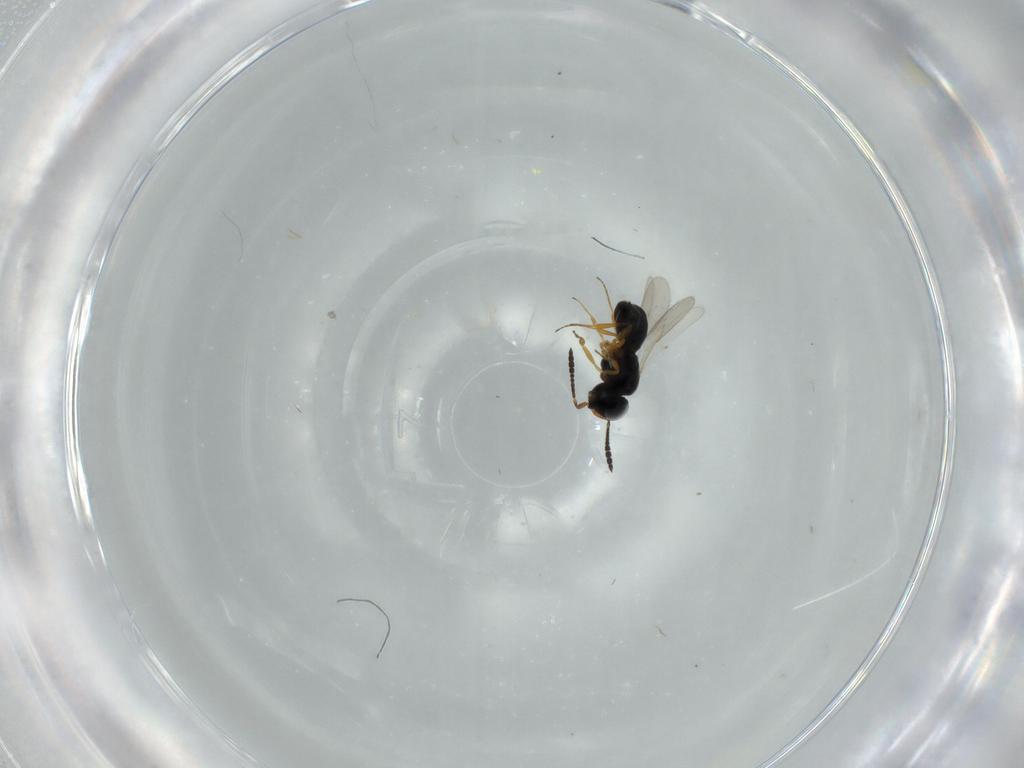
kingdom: Animalia
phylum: Arthropoda
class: Insecta
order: Hymenoptera
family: Scelionidae
